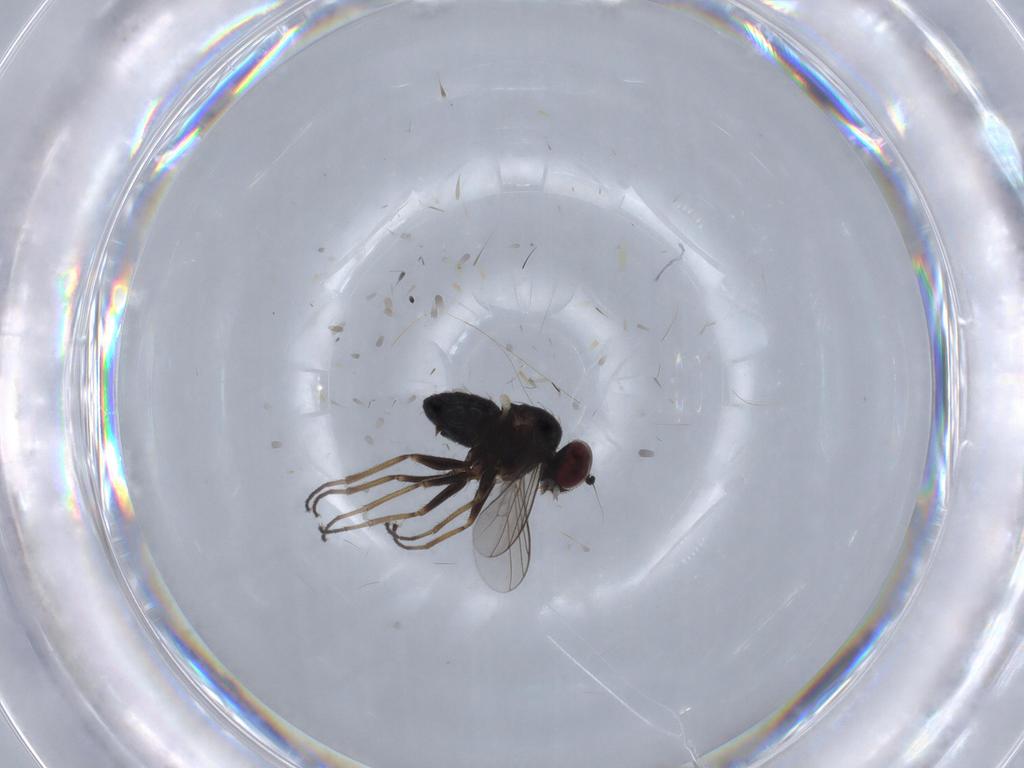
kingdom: Animalia
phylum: Arthropoda
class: Insecta
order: Diptera
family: Dolichopodidae
